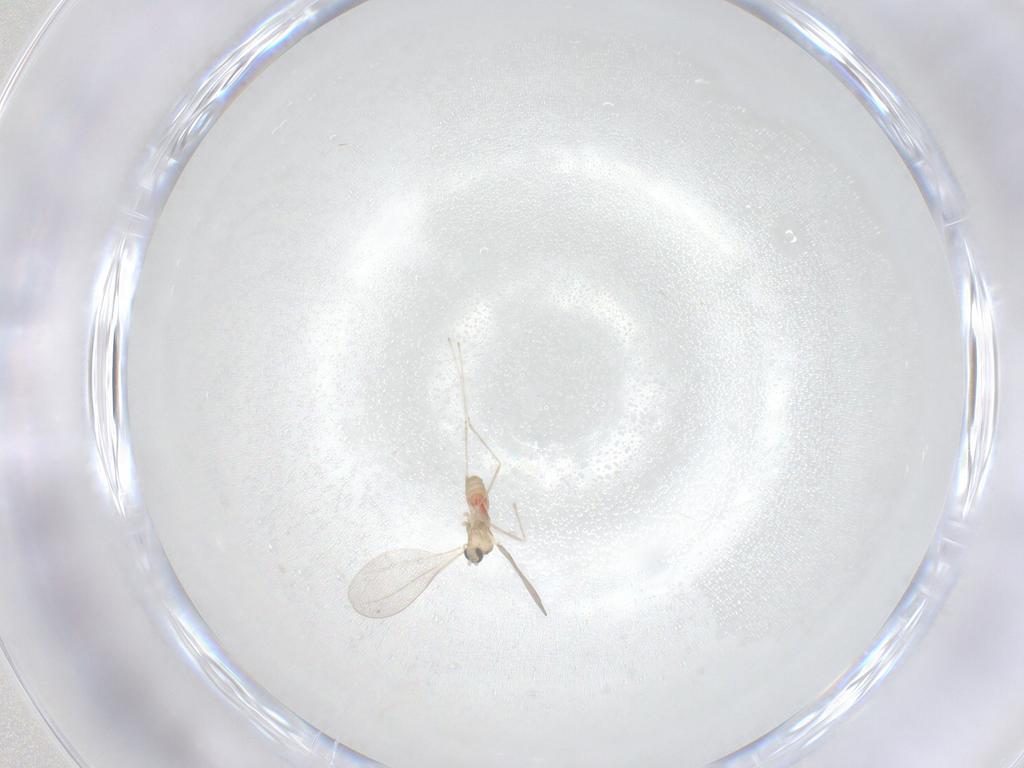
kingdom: Animalia
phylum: Arthropoda
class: Insecta
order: Diptera
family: Cecidomyiidae
